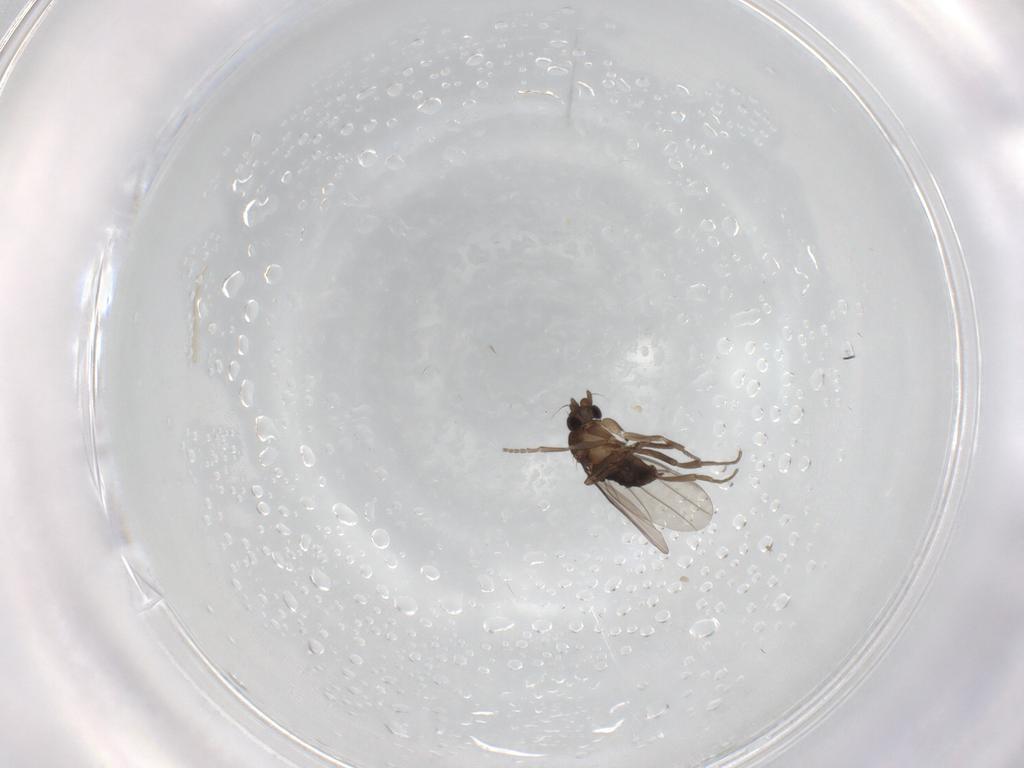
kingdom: Animalia
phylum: Arthropoda
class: Insecta
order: Diptera
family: Phoridae
